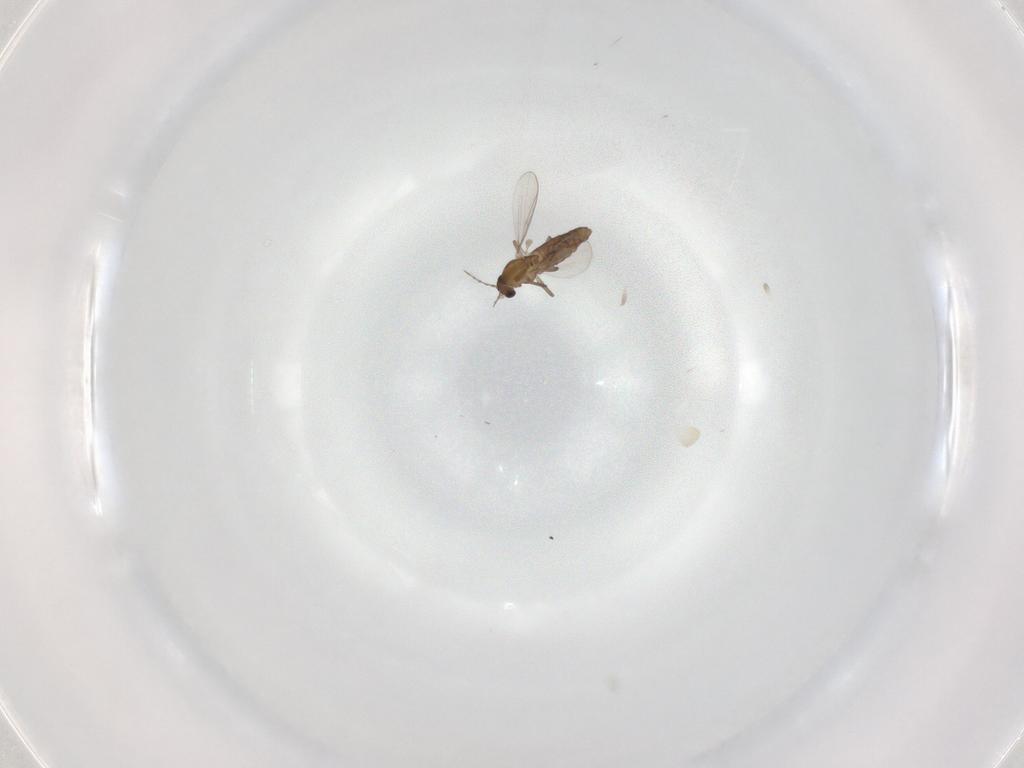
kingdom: Animalia
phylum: Arthropoda
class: Insecta
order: Diptera
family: Chironomidae
